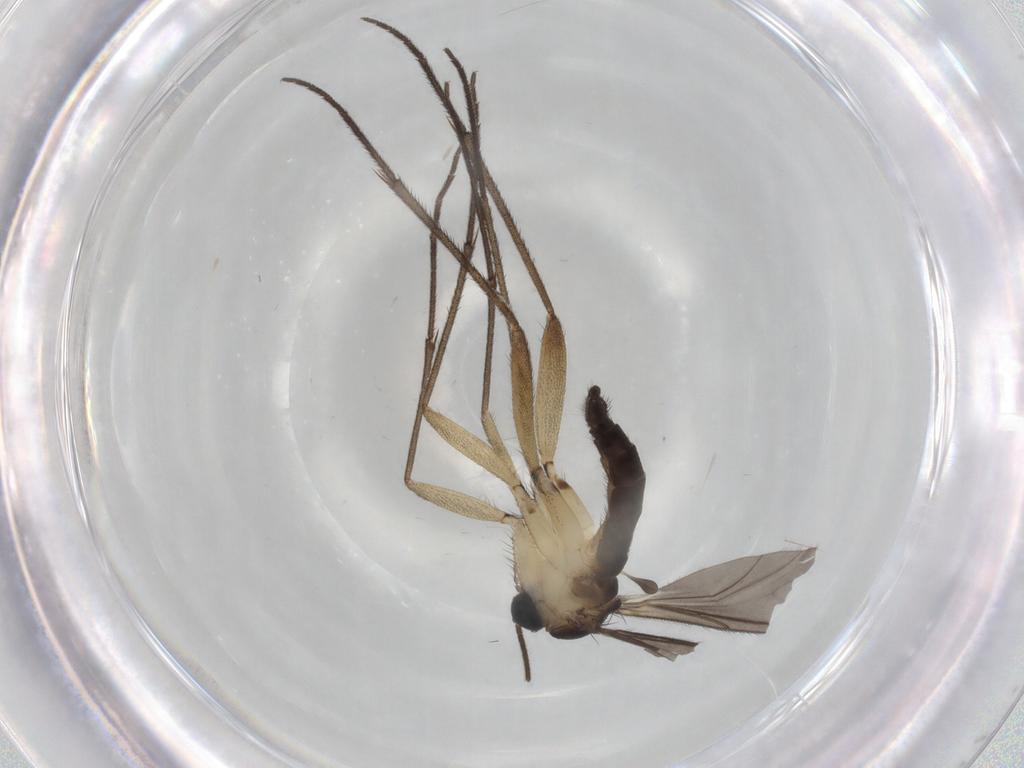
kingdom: Animalia
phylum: Arthropoda
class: Insecta
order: Diptera
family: Sciaridae
